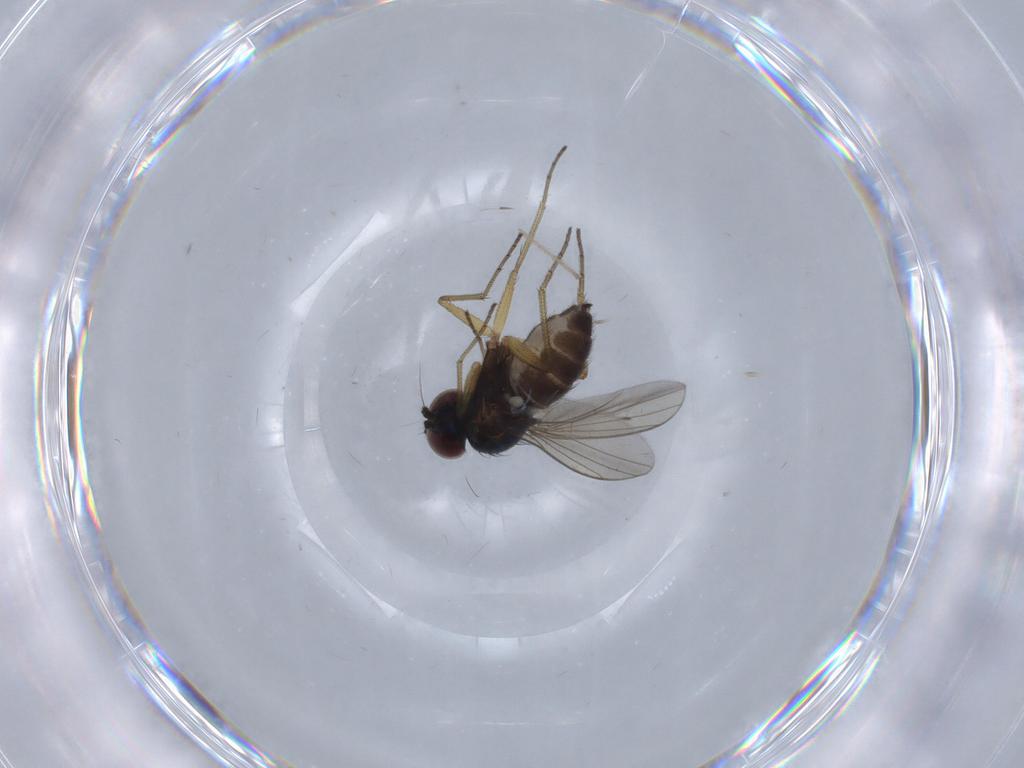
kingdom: Animalia
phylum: Arthropoda
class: Insecta
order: Diptera
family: Dolichopodidae
